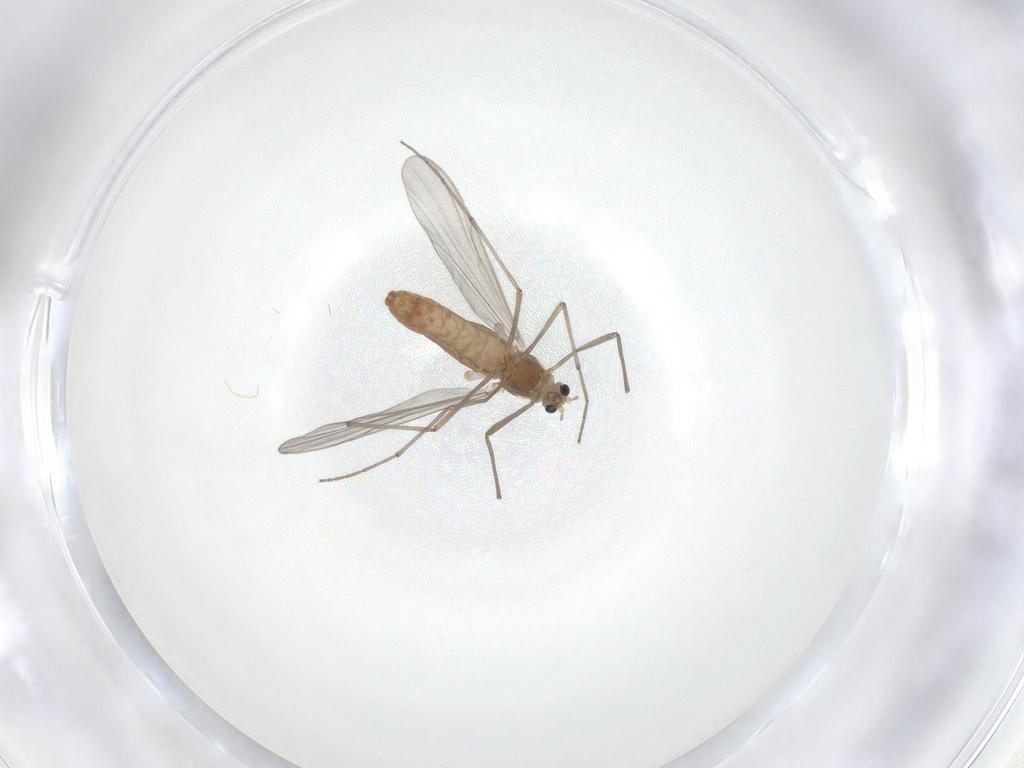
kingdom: Animalia
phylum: Arthropoda
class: Insecta
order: Diptera
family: Chironomidae
